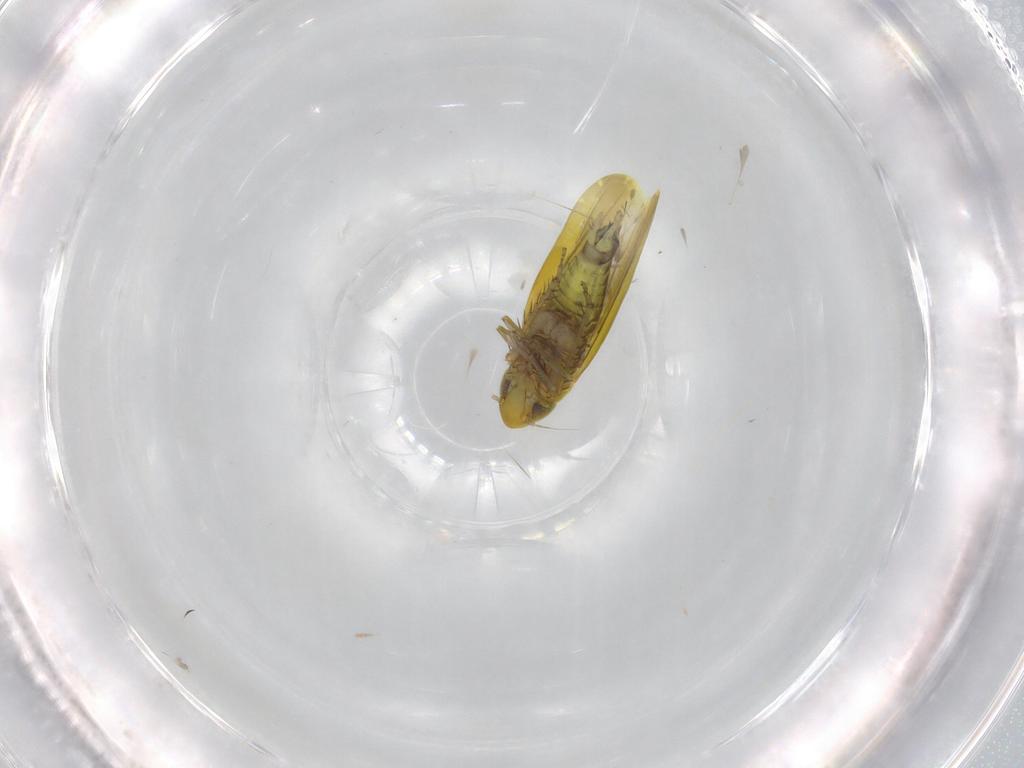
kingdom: Animalia
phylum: Arthropoda
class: Insecta
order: Hemiptera
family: Cicadellidae
